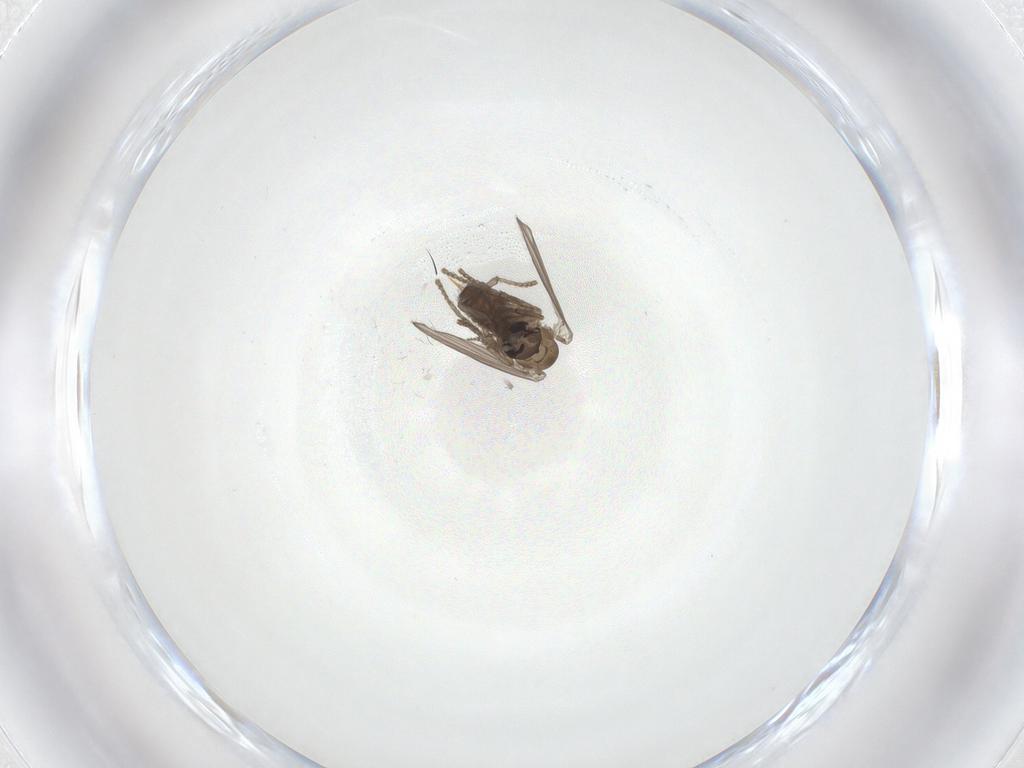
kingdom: Animalia
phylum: Arthropoda
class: Insecta
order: Diptera
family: Psychodidae
